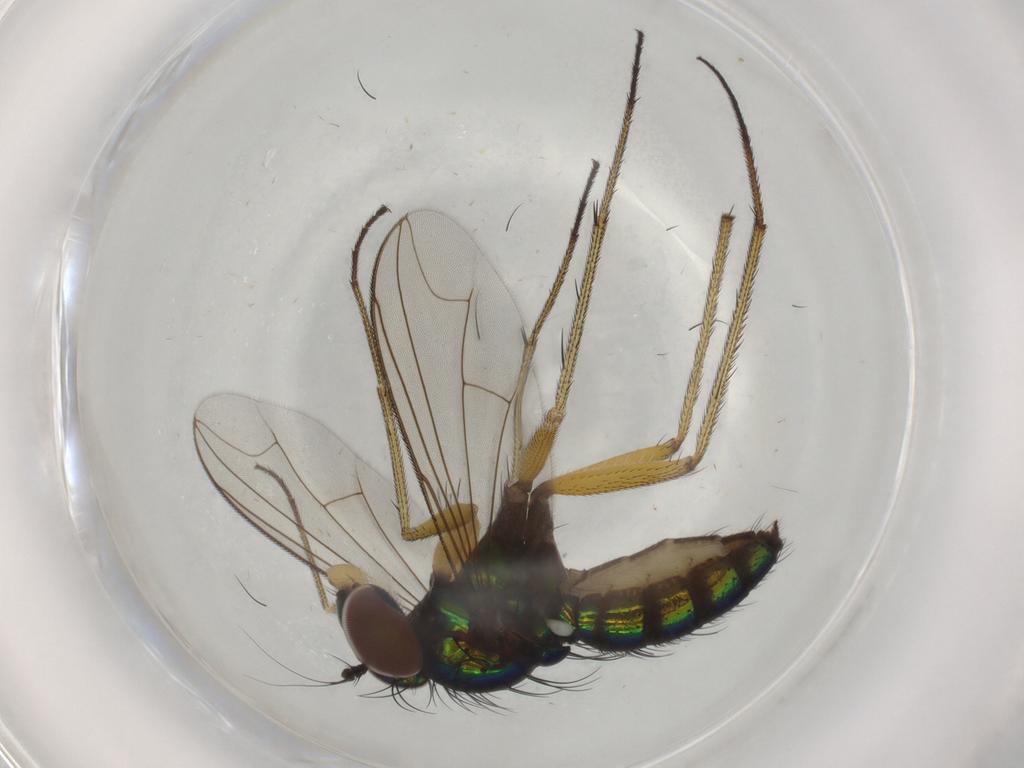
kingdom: Animalia
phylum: Arthropoda
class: Insecta
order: Diptera
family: Dolichopodidae
